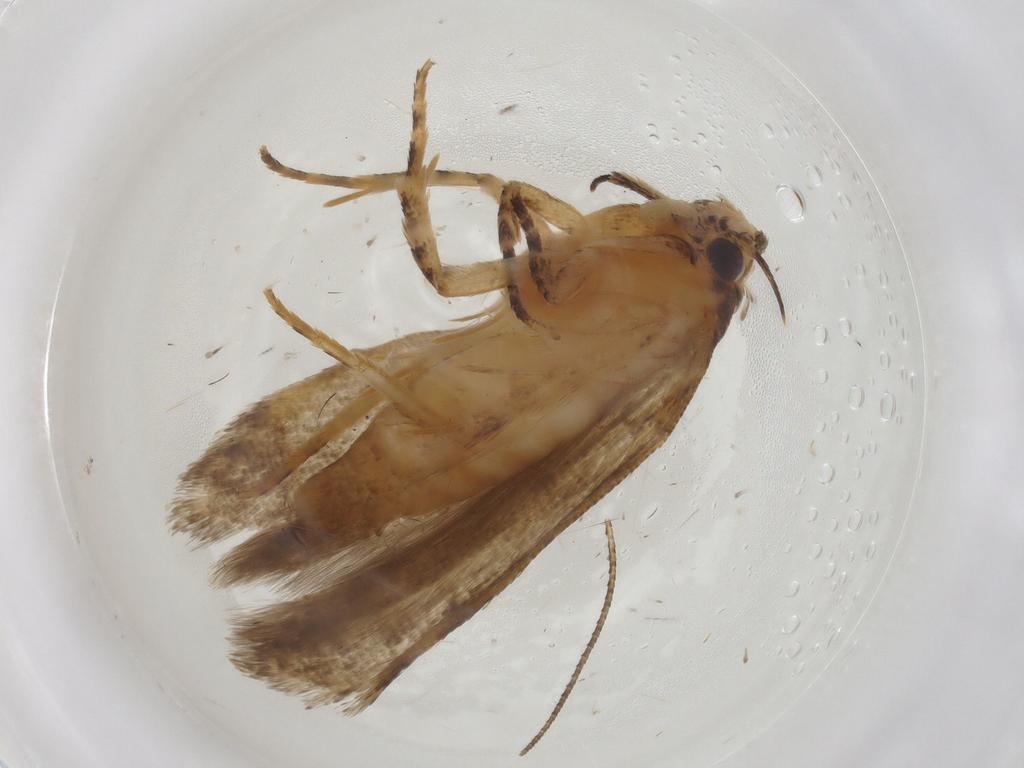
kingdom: Animalia
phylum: Arthropoda
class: Insecta
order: Lepidoptera
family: Gelechiidae
